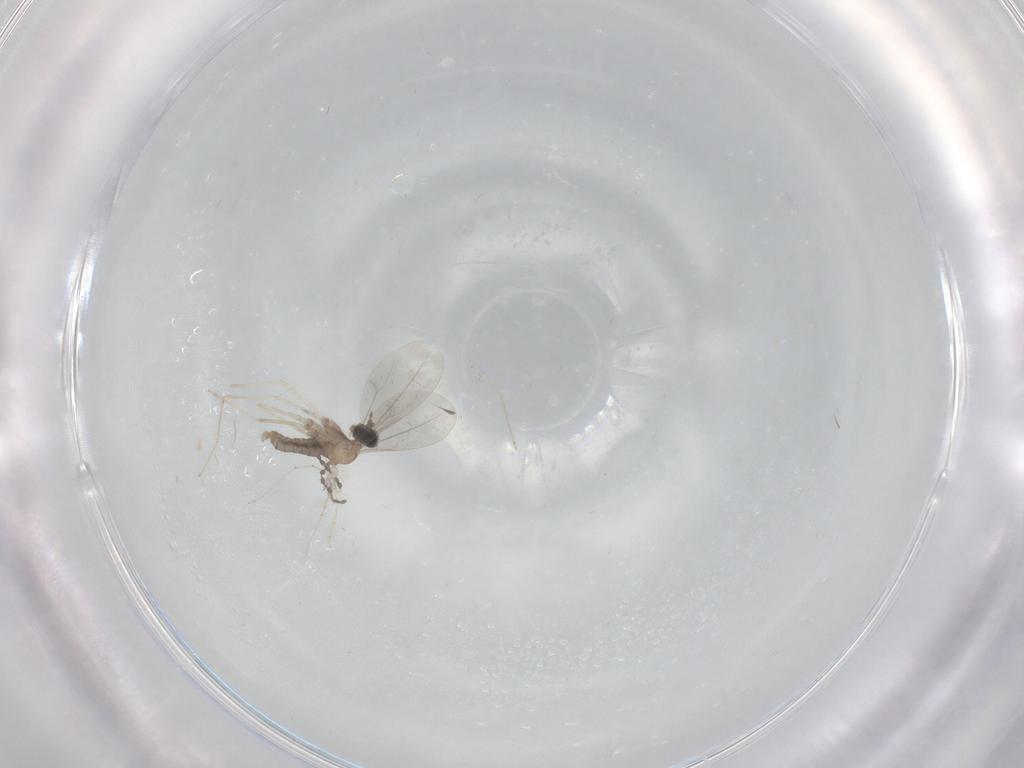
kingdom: Animalia
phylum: Arthropoda
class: Insecta
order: Diptera
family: Cecidomyiidae
